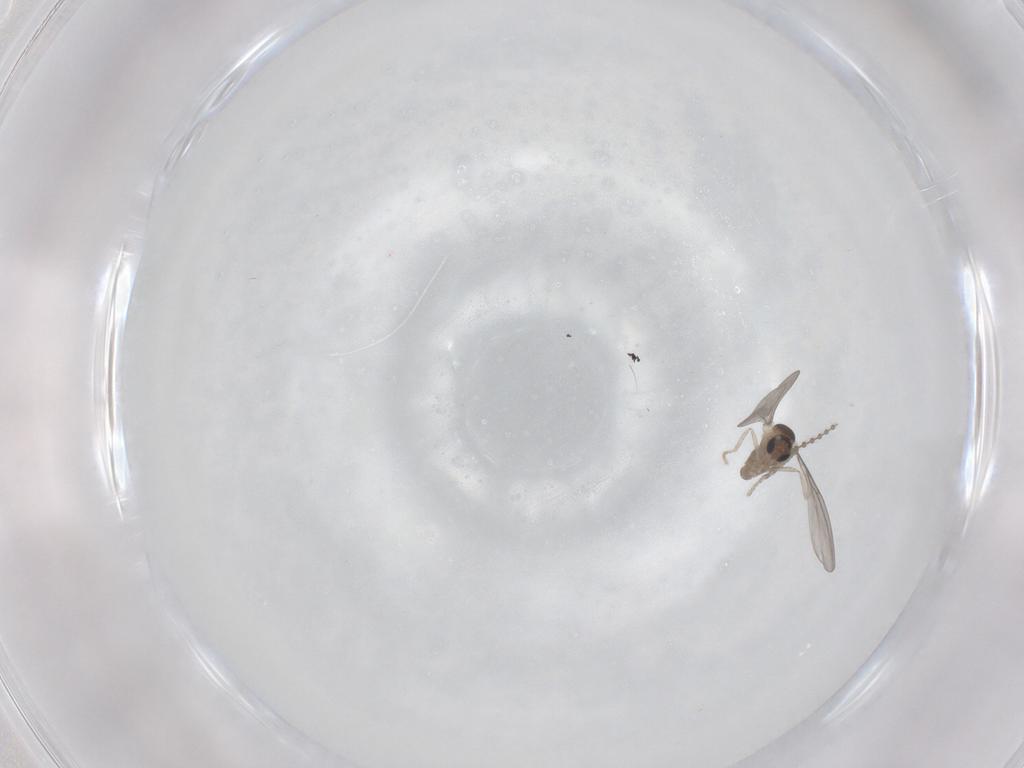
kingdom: Animalia
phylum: Arthropoda
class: Insecta
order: Diptera
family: Cecidomyiidae
